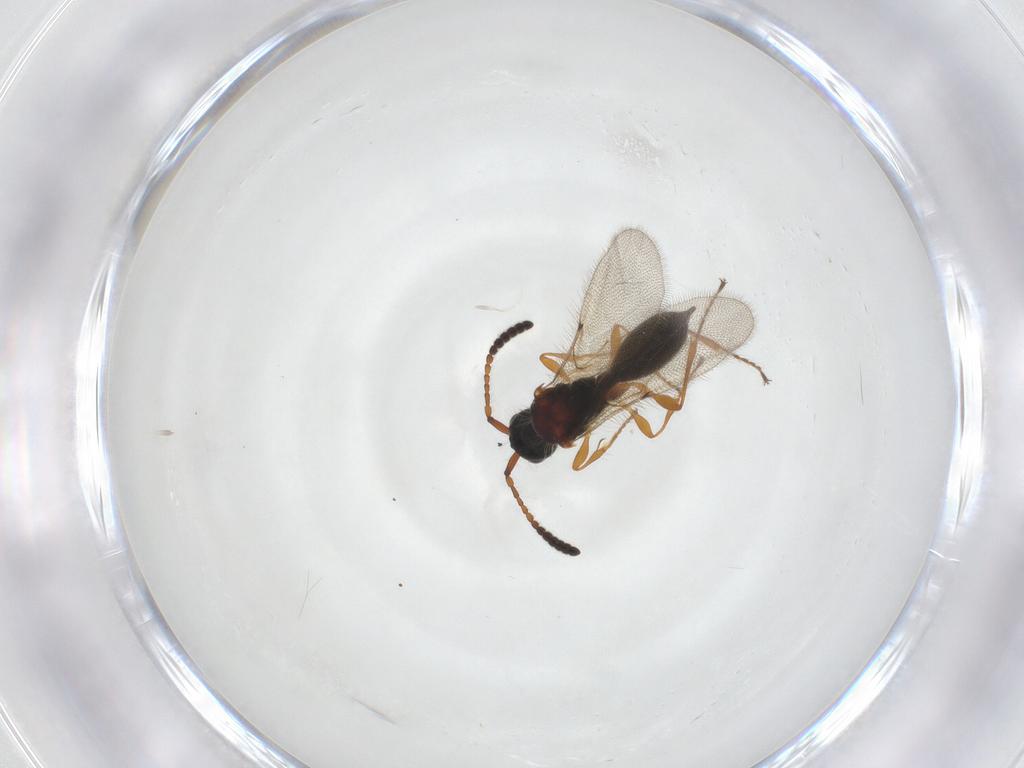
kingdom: Animalia
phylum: Arthropoda
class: Insecta
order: Hymenoptera
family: Diapriidae
